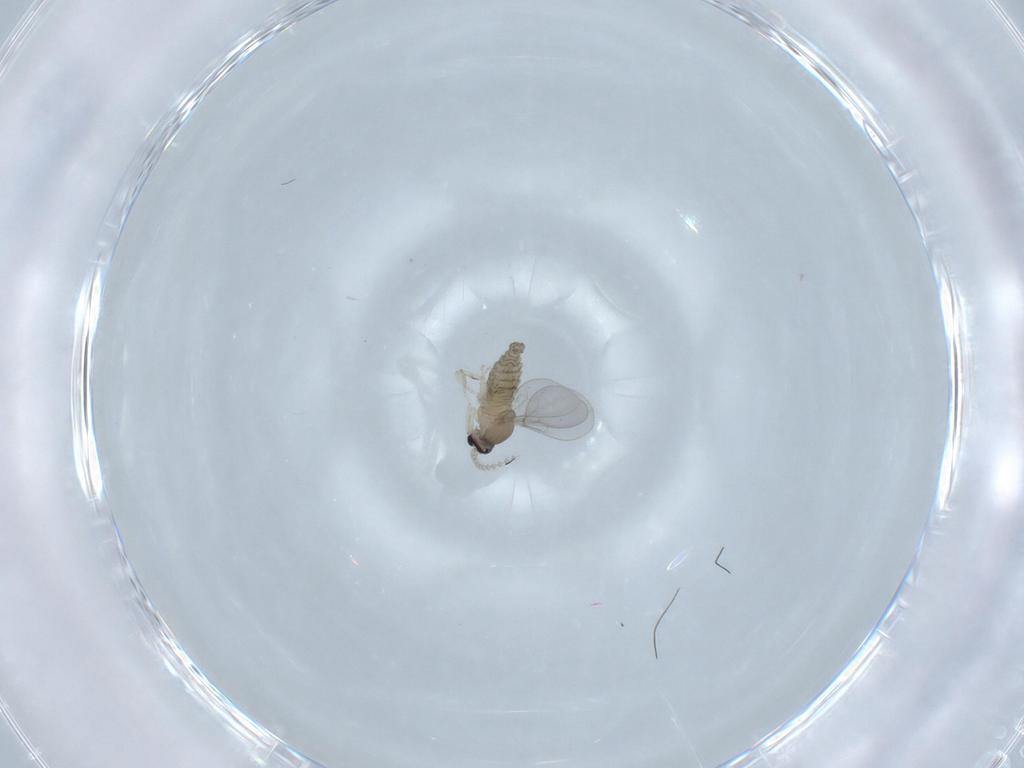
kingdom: Animalia
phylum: Arthropoda
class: Insecta
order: Diptera
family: Cecidomyiidae
